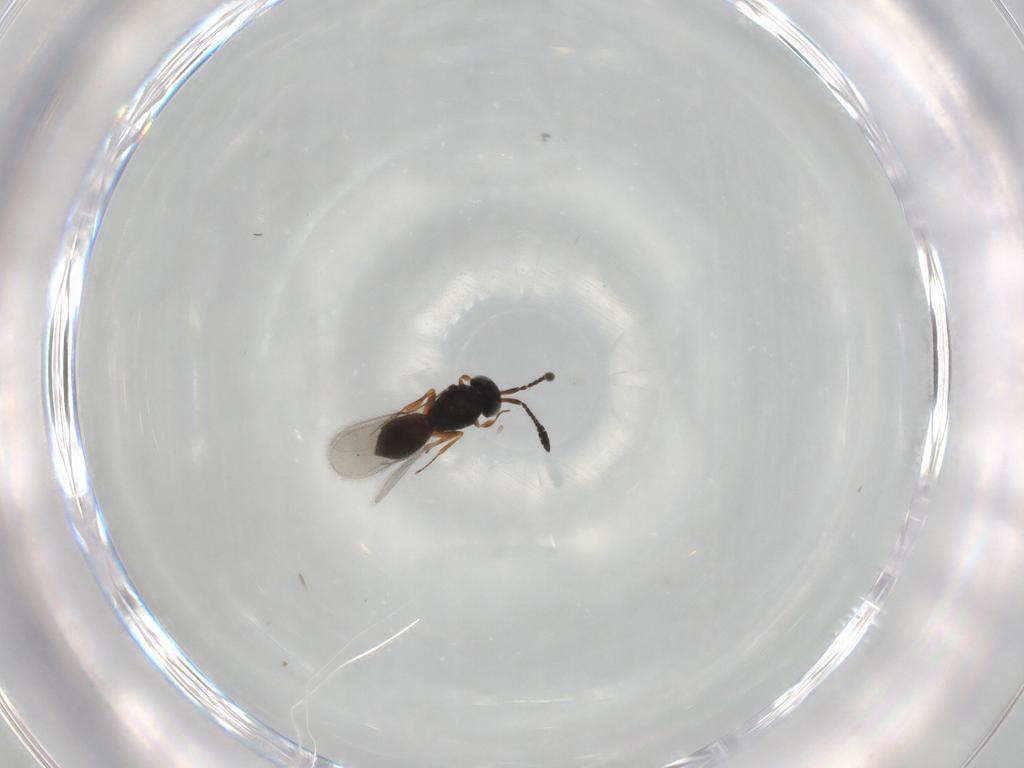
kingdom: Animalia
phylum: Arthropoda
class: Insecta
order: Hymenoptera
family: Scelionidae
